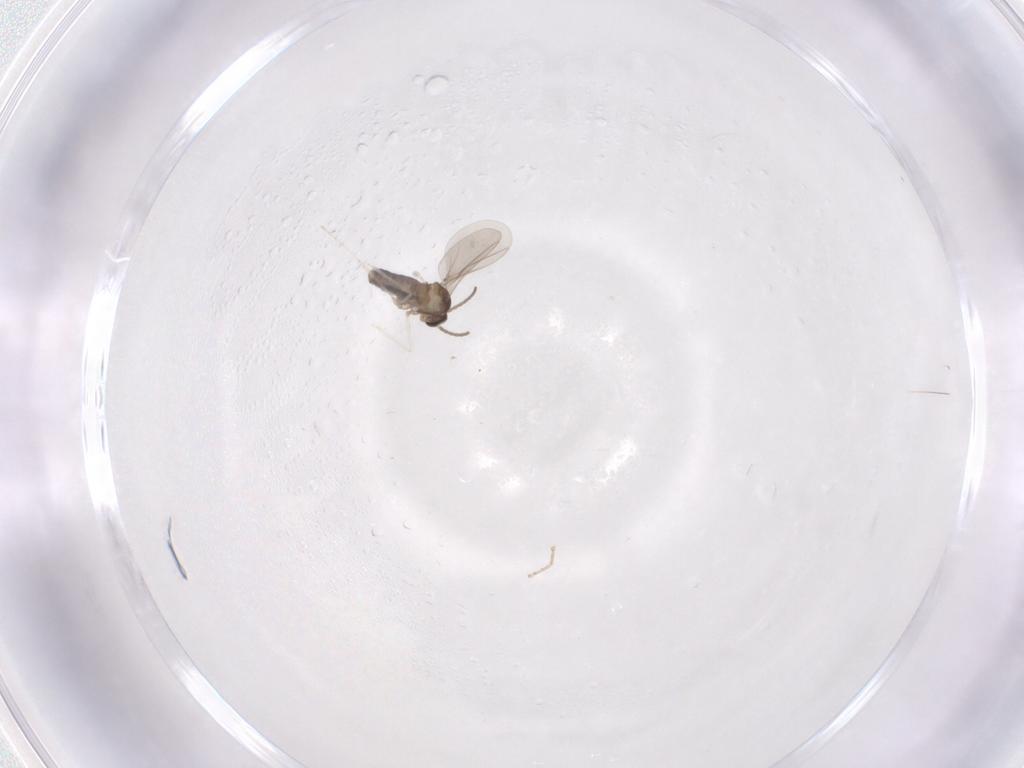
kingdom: Animalia
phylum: Arthropoda
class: Insecta
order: Diptera
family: Ceratopogonidae
